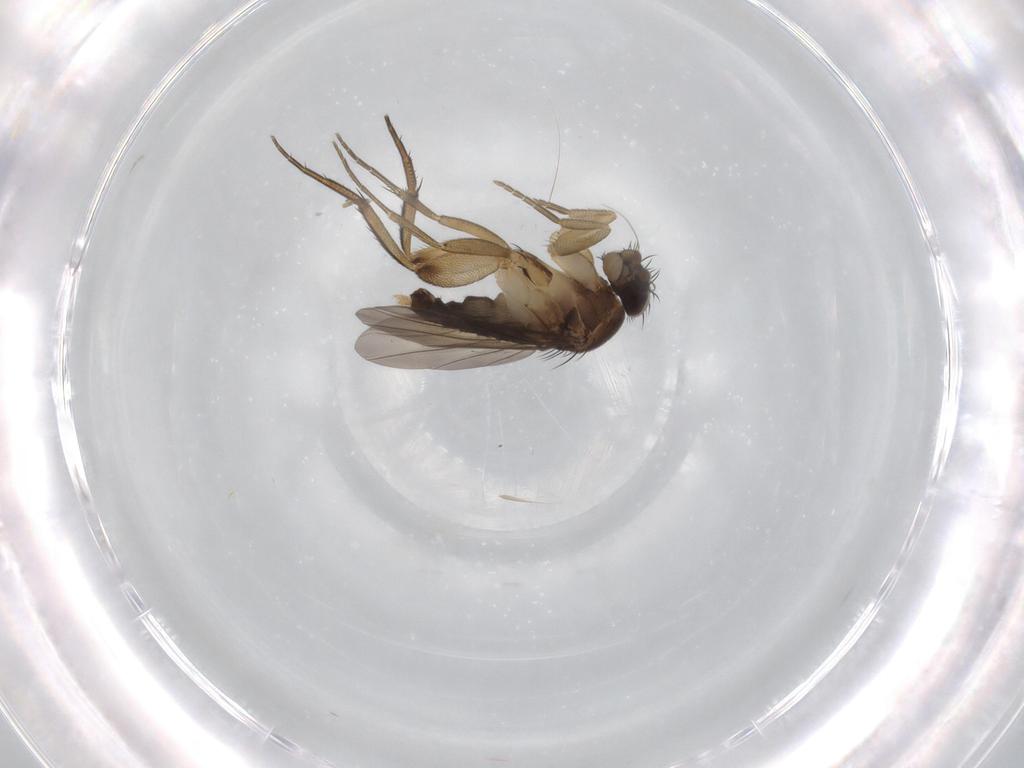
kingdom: Animalia
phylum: Arthropoda
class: Insecta
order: Diptera
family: Phoridae
